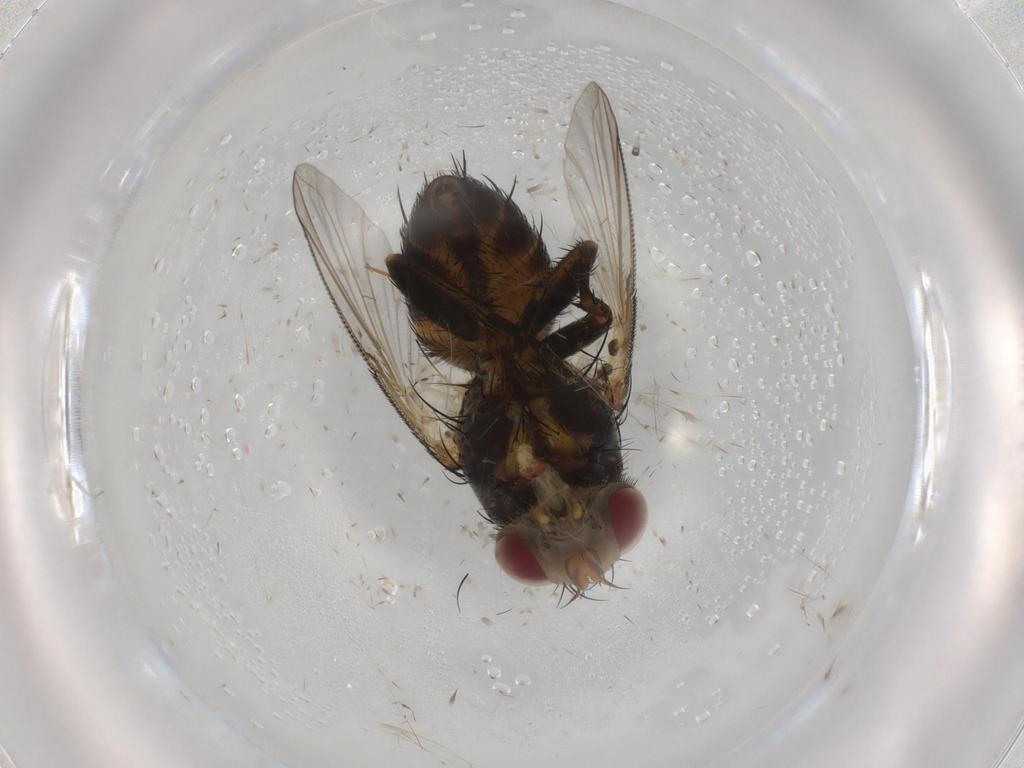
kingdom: Animalia
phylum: Arthropoda
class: Insecta
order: Diptera
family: Tachinidae
